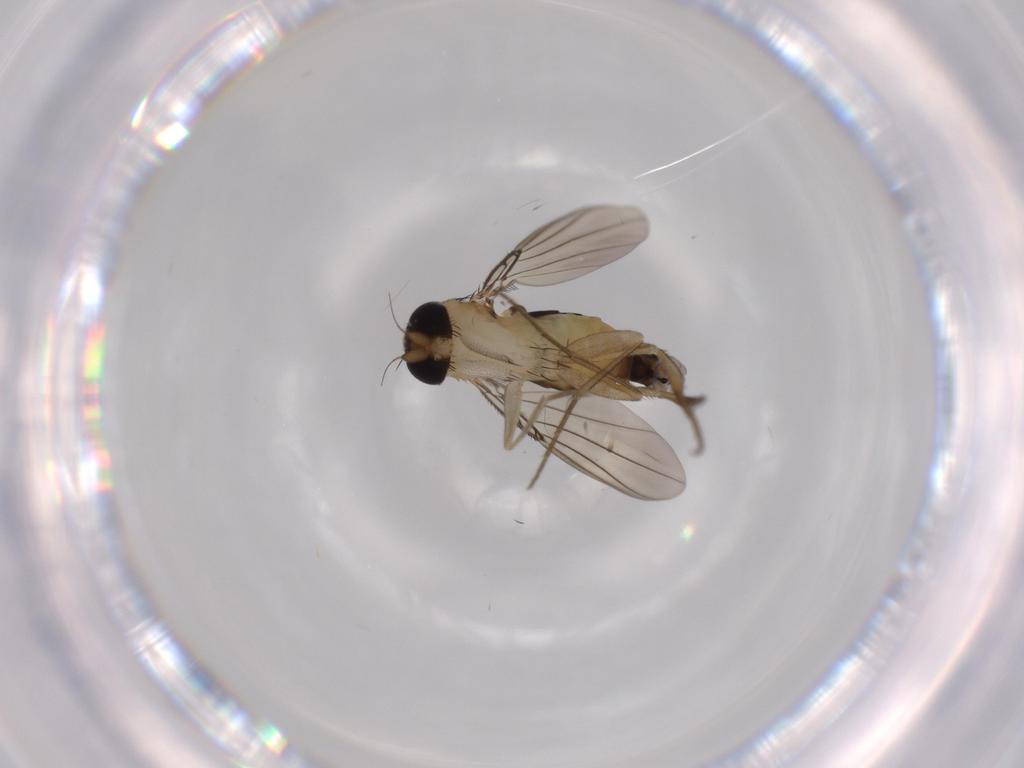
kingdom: Animalia
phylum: Arthropoda
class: Insecta
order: Diptera
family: Phoridae
